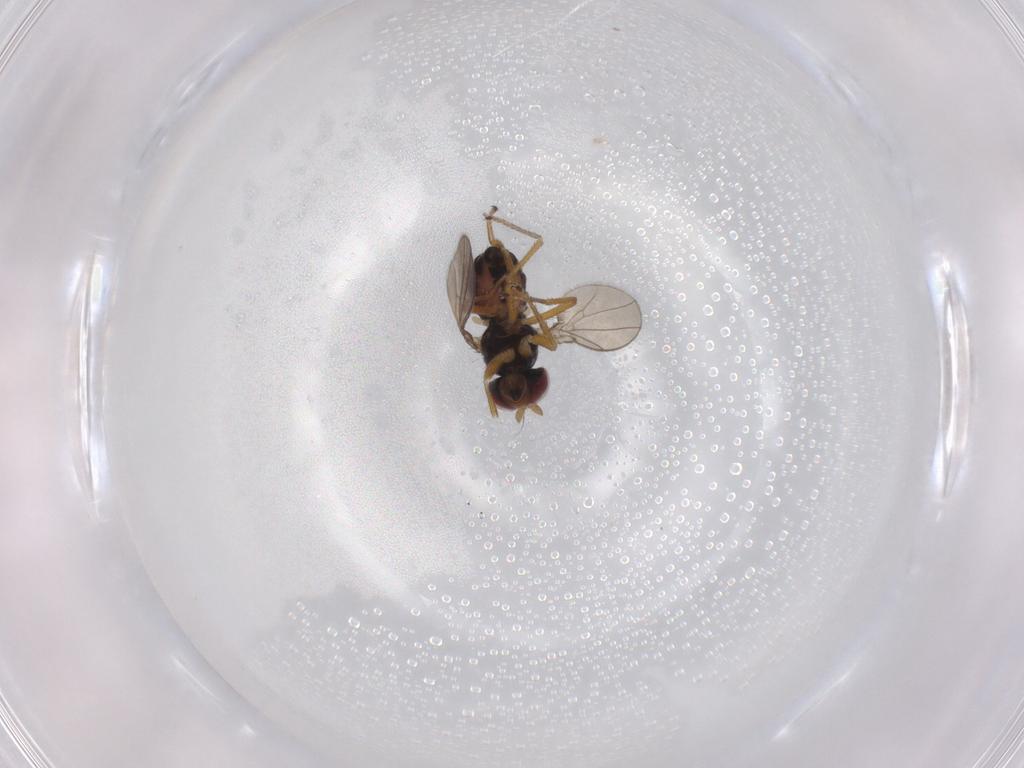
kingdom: Animalia
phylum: Arthropoda
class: Insecta
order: Diptera
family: Ephydridae
